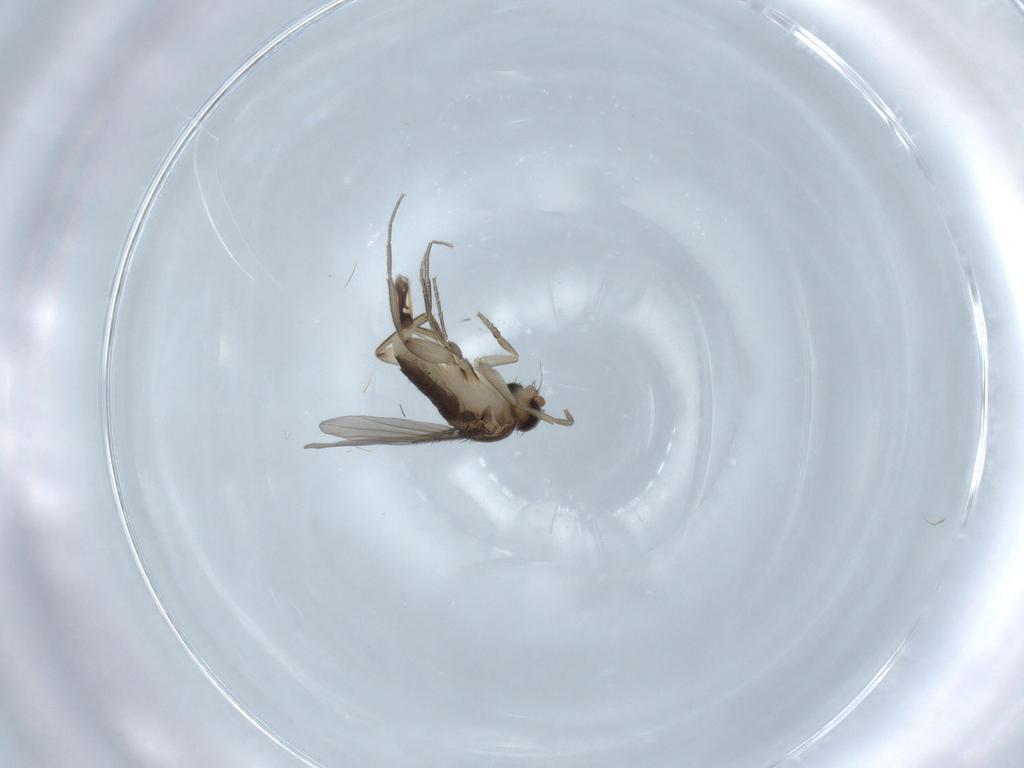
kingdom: Animalia
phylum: Arthropoda
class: Insecta
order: Diptera
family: Phoridae
